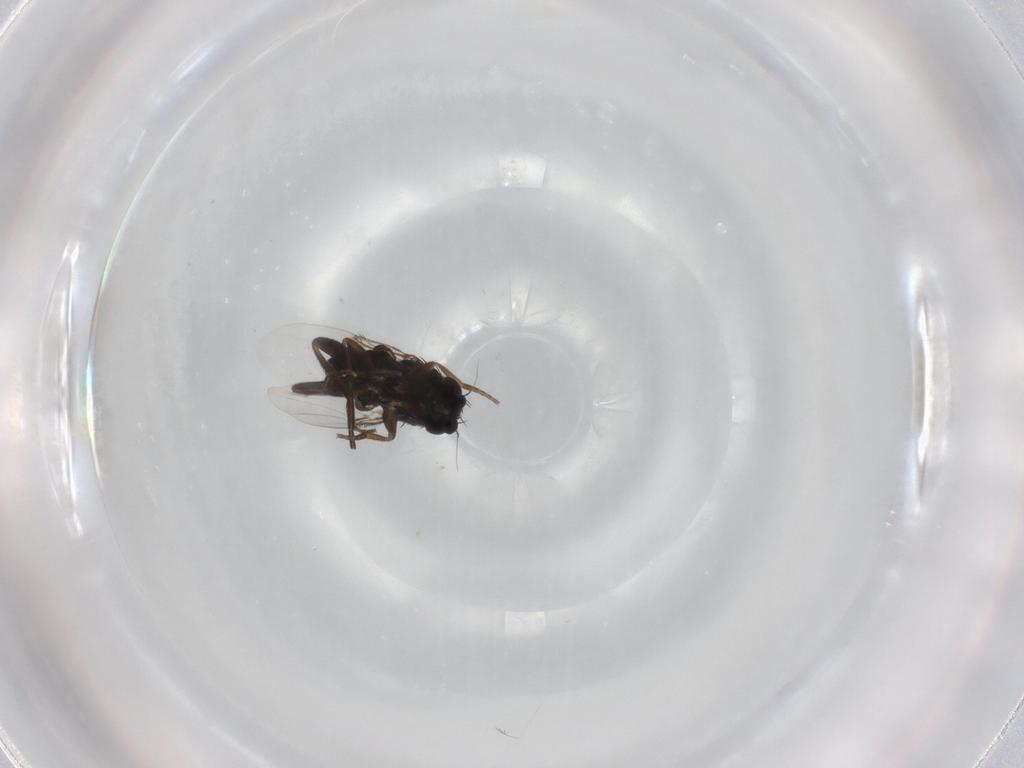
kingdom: Animalia
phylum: Arthropoda
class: Insecta
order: Diptera
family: Phoridae
